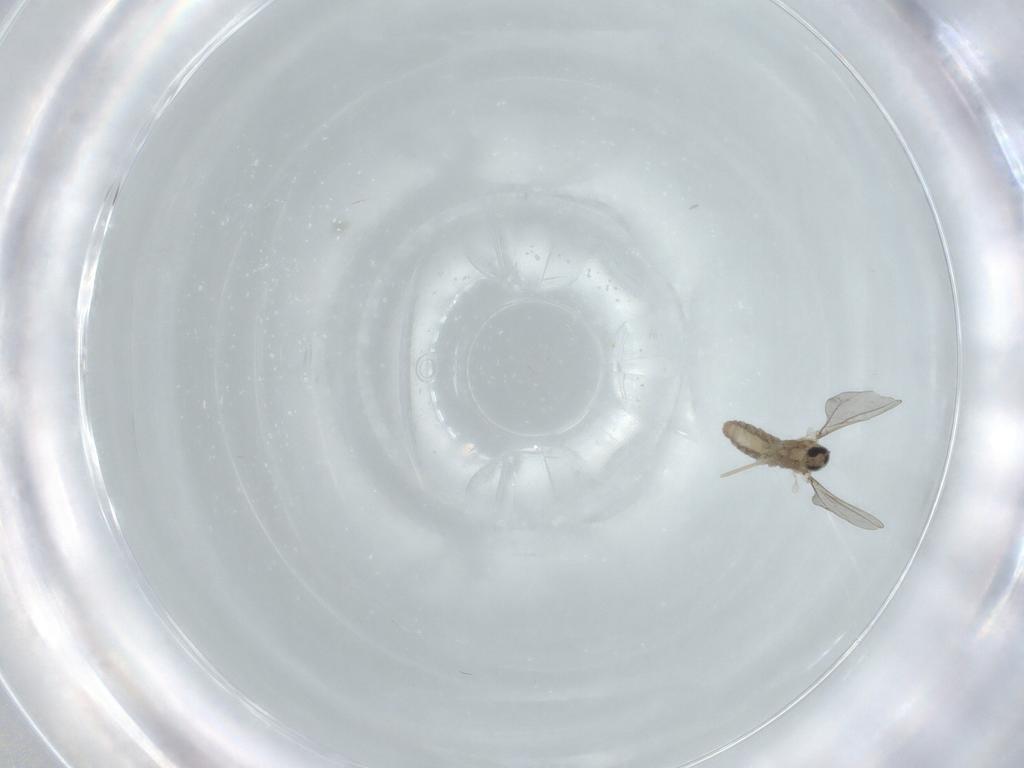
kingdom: Animalia
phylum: Arthropoda
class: Insecta
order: Diptera
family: Cecidomyiidae
